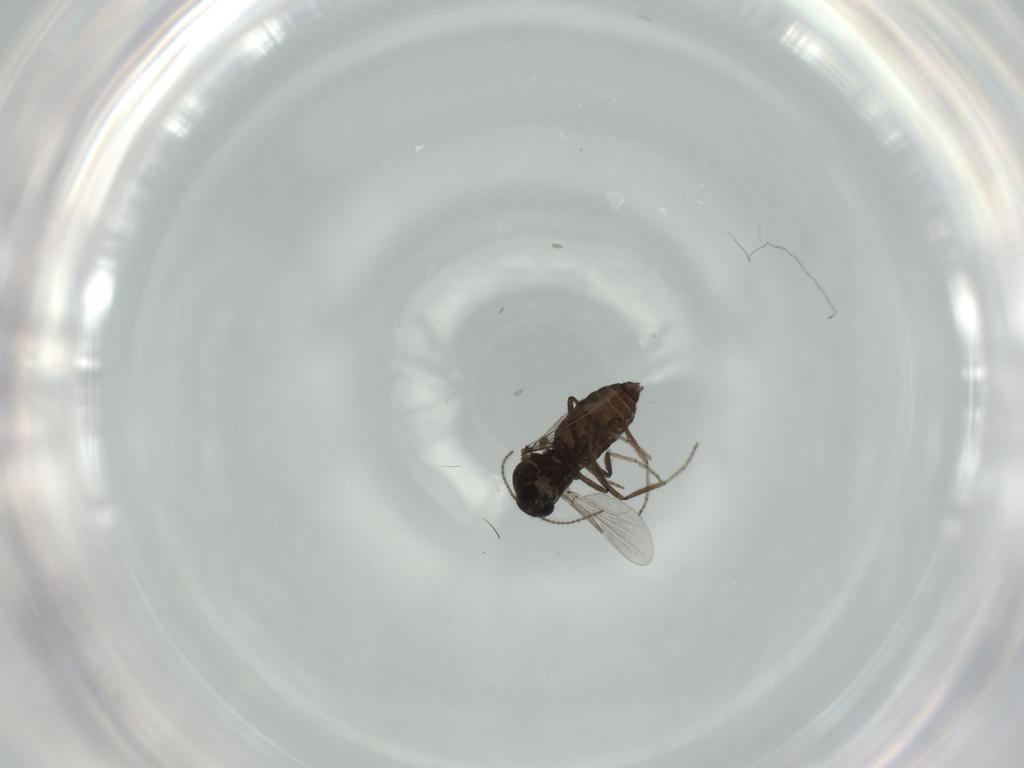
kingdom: Animalia
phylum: Arthropoda
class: Insecta
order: Diptera
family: Ceratopogonidae
